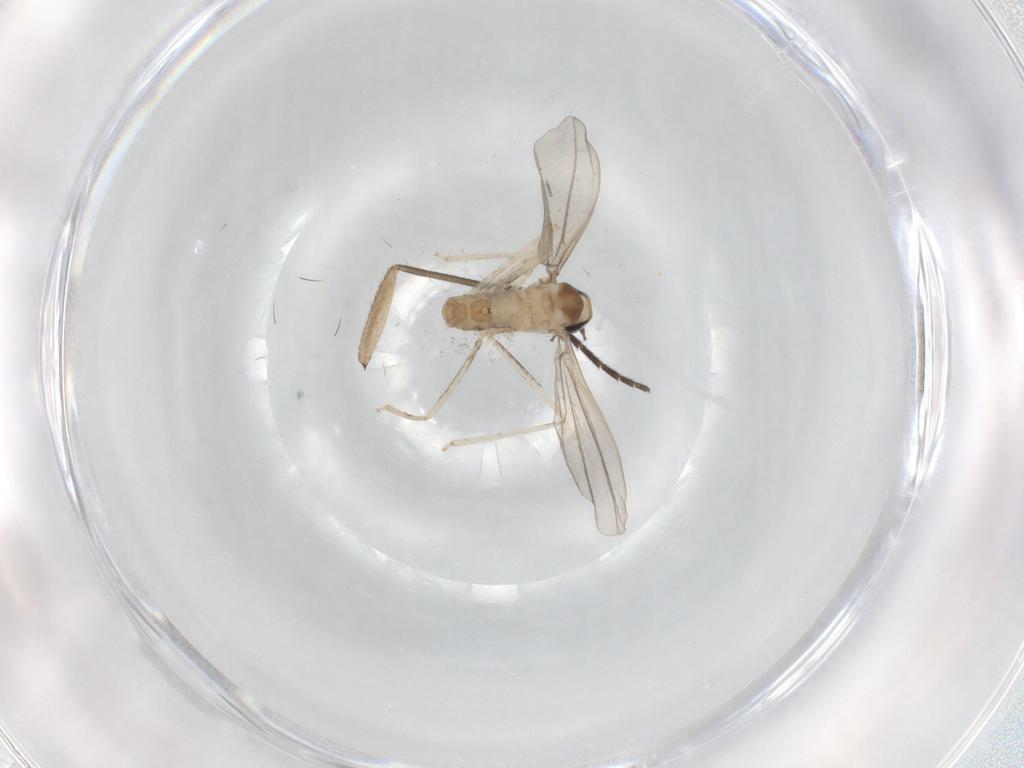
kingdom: Animalia
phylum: Arthropoda
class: Insecta
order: Diptera
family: Cecidomyiidae
